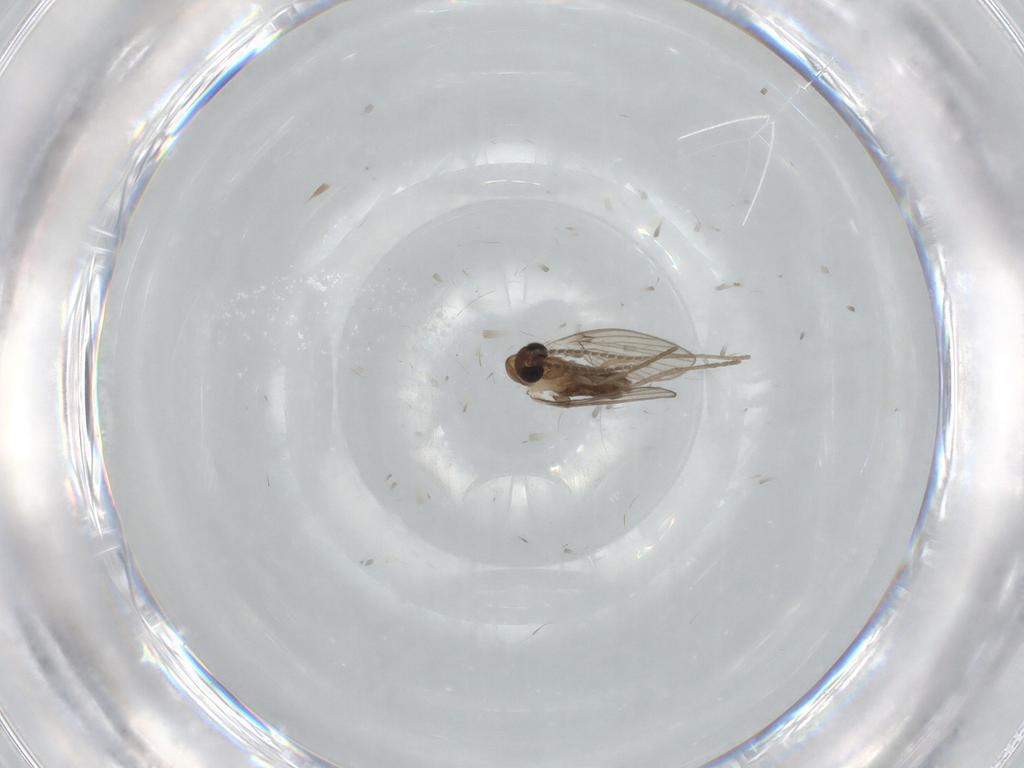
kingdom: Animalia
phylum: Arthropoda
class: Insecta
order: Diptera
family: Chironomidae
